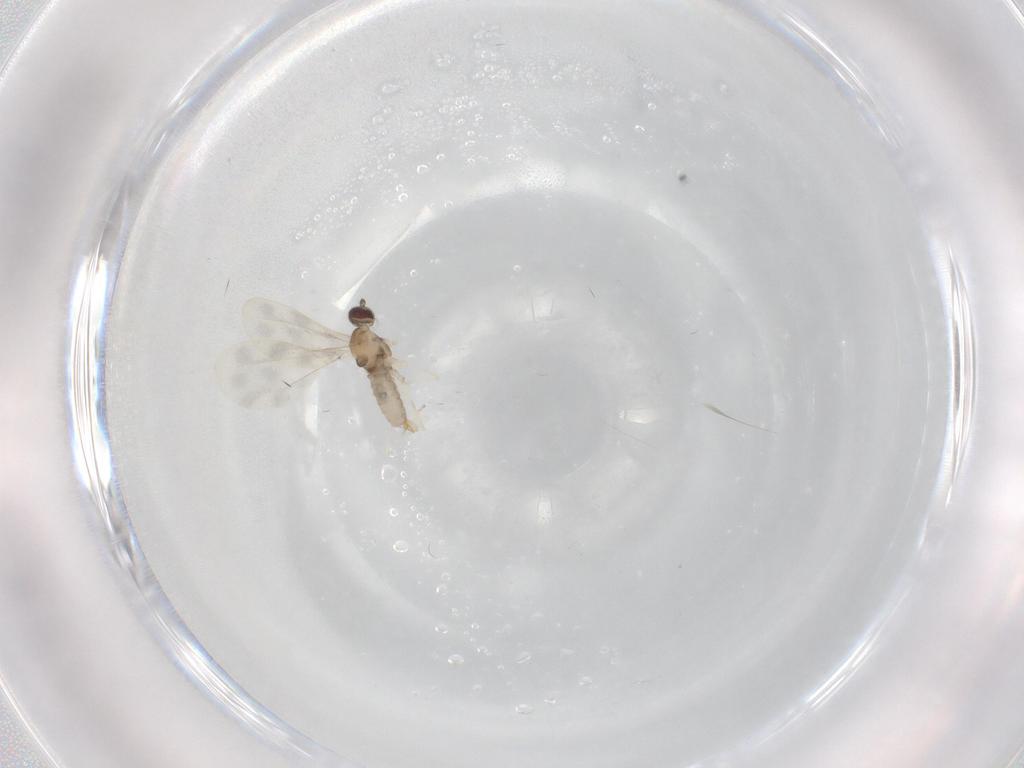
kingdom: Animalia
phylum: Arthropoda
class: Insecta
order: Diptera
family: Cecidomyiidae
